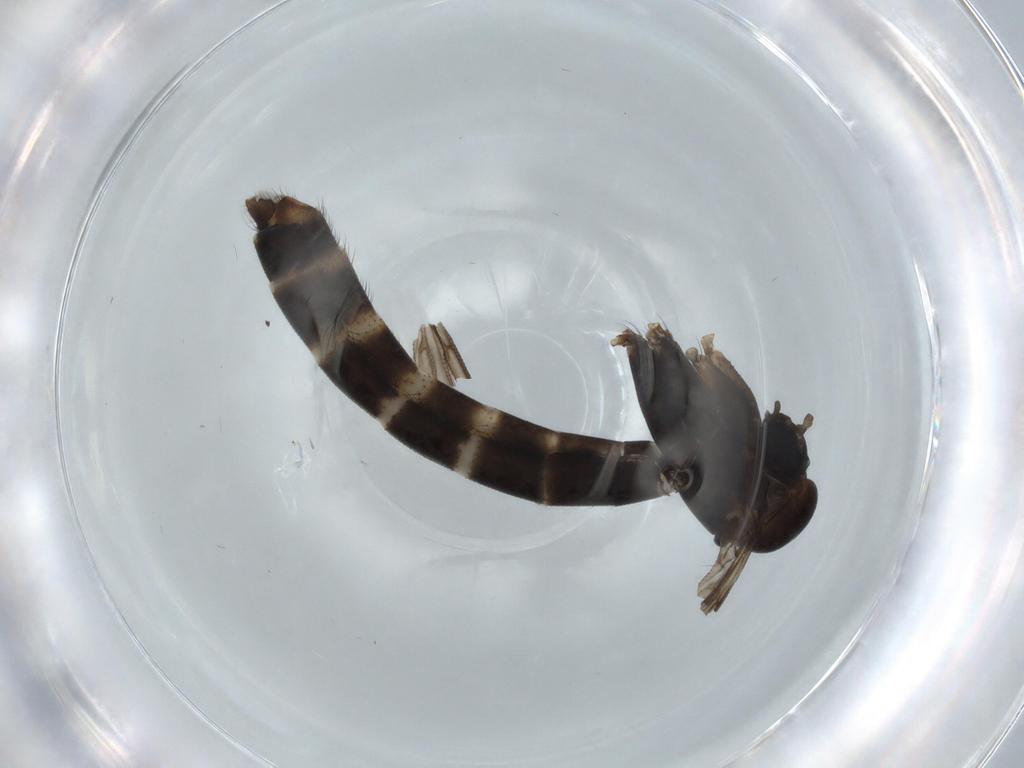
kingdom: Animalia
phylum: Arthropoda
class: Insecta
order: Diptera
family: Ditomyiidae
